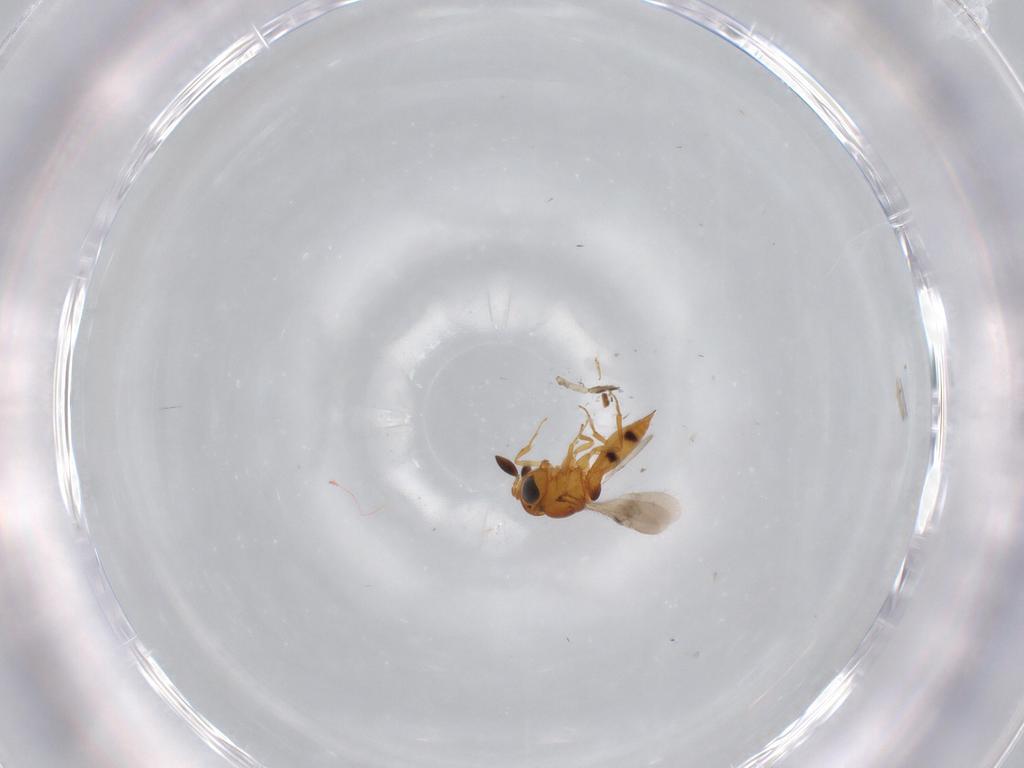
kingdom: Animalia
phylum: Arthropoda
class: Insecta
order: Hymenoptera
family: Scelionidae
